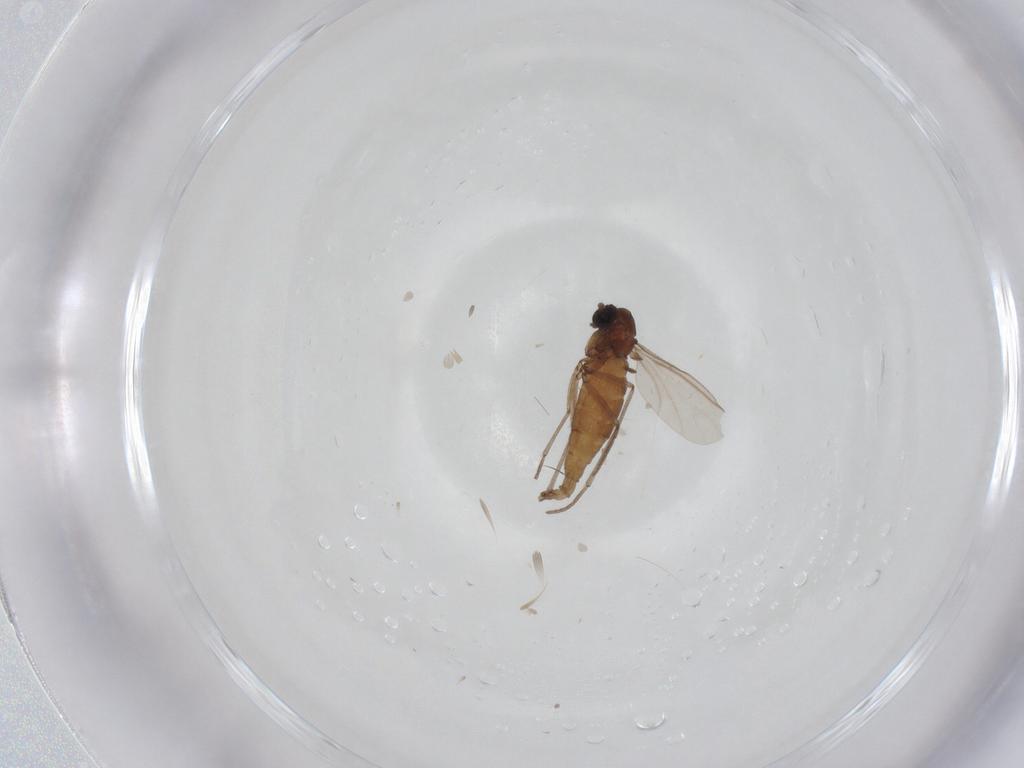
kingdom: Animalia
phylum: Arthropoda
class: Insecta
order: Diptera
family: Sciaridae
